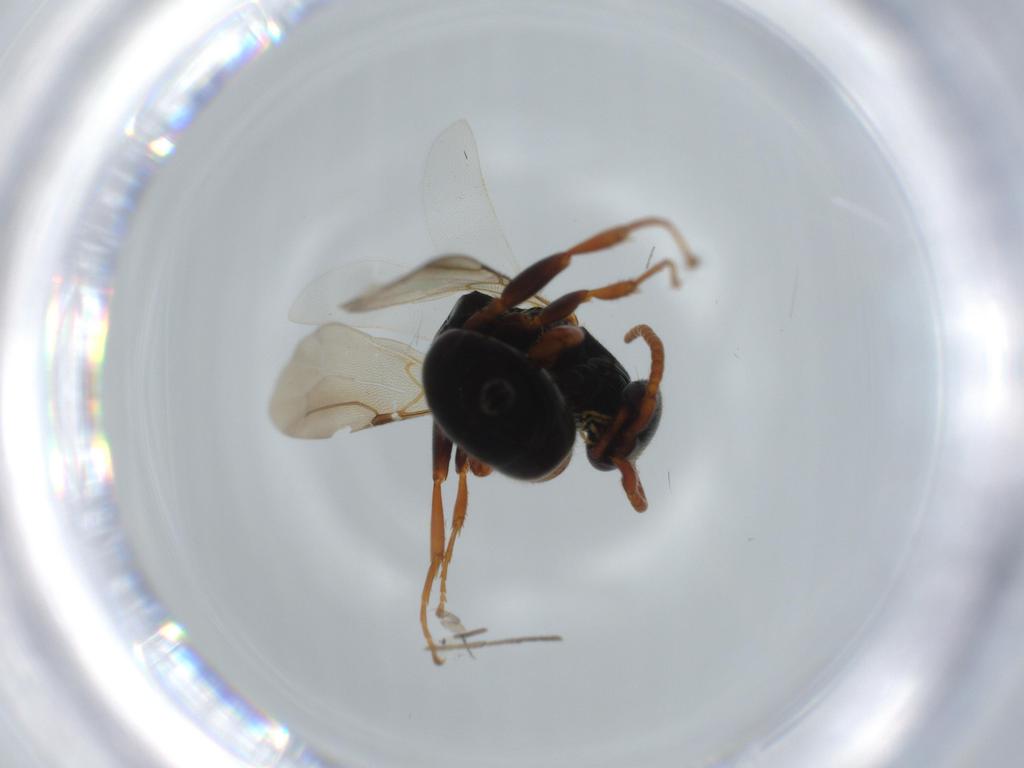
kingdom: Animalia
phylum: Arthropoda
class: Insecta
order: Hymenoptera
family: Bethylidae
